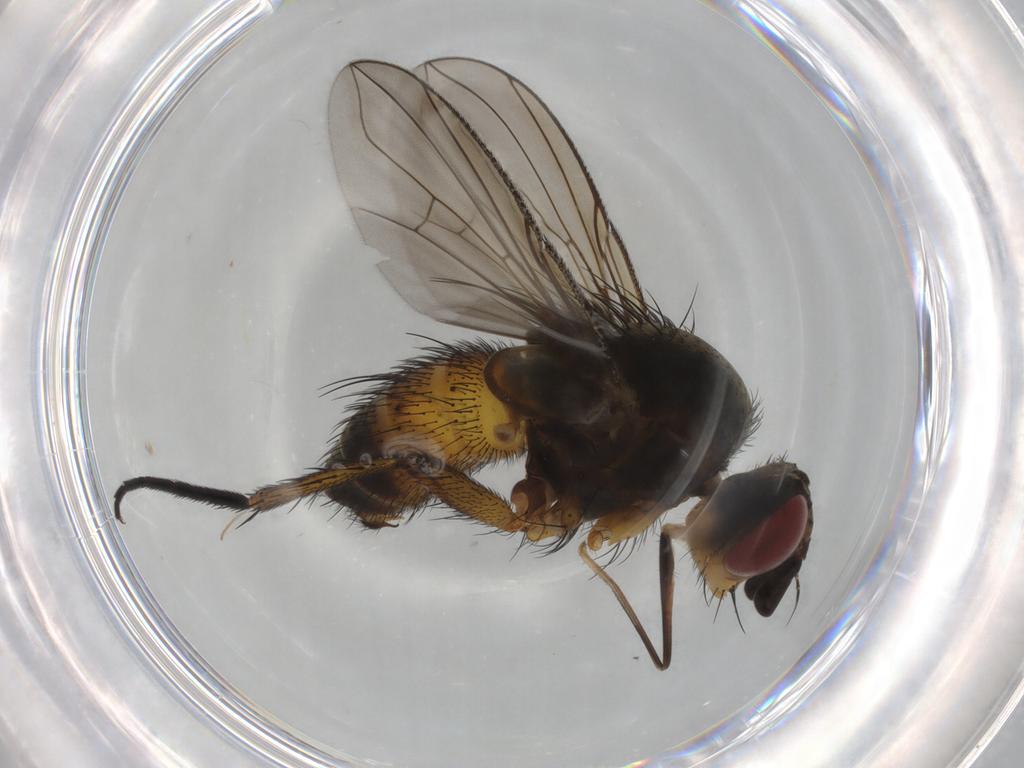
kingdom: Animalia
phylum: Arthropoda
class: Insecta
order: Diptera
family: Tachinidae
